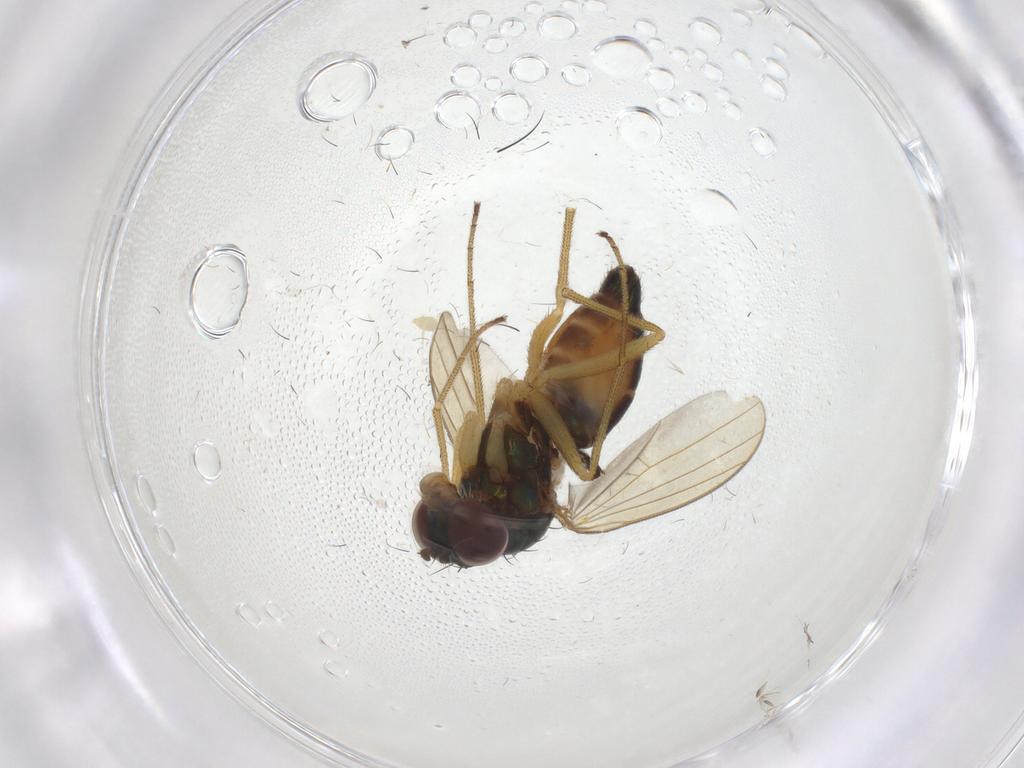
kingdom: Animalia
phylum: Arthropoda
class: Insecta
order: Diptera
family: Dolichopodidae
